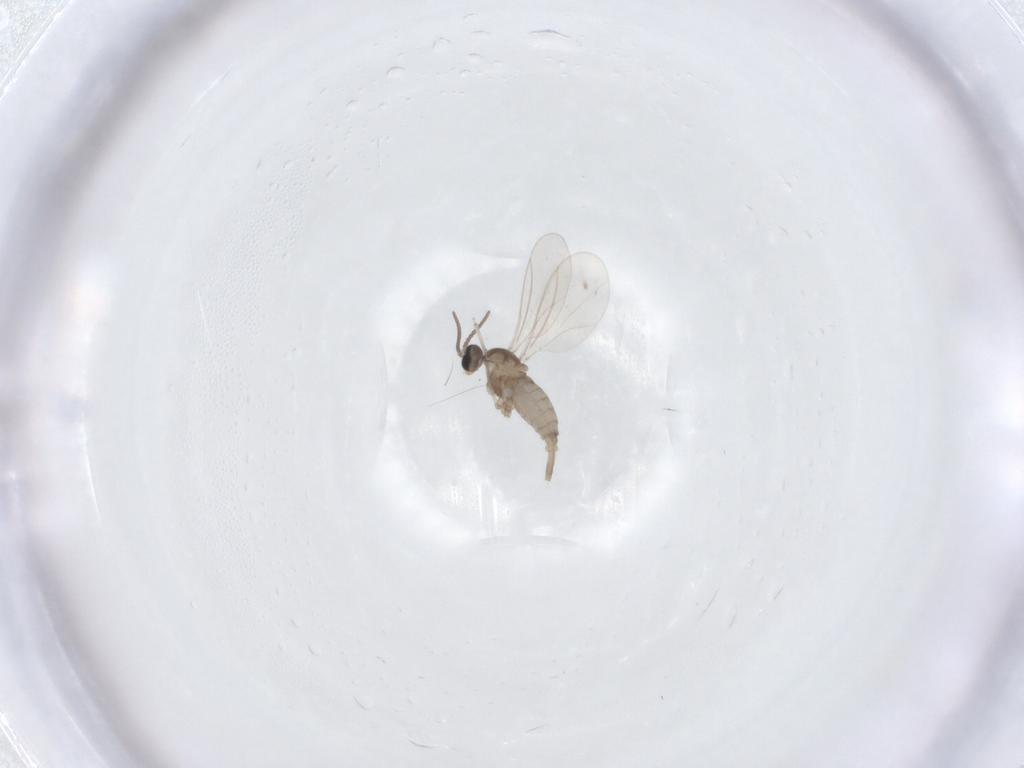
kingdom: Animalia
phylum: Arthropoda
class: Insecta
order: Diptera
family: Cecidomyiidae
